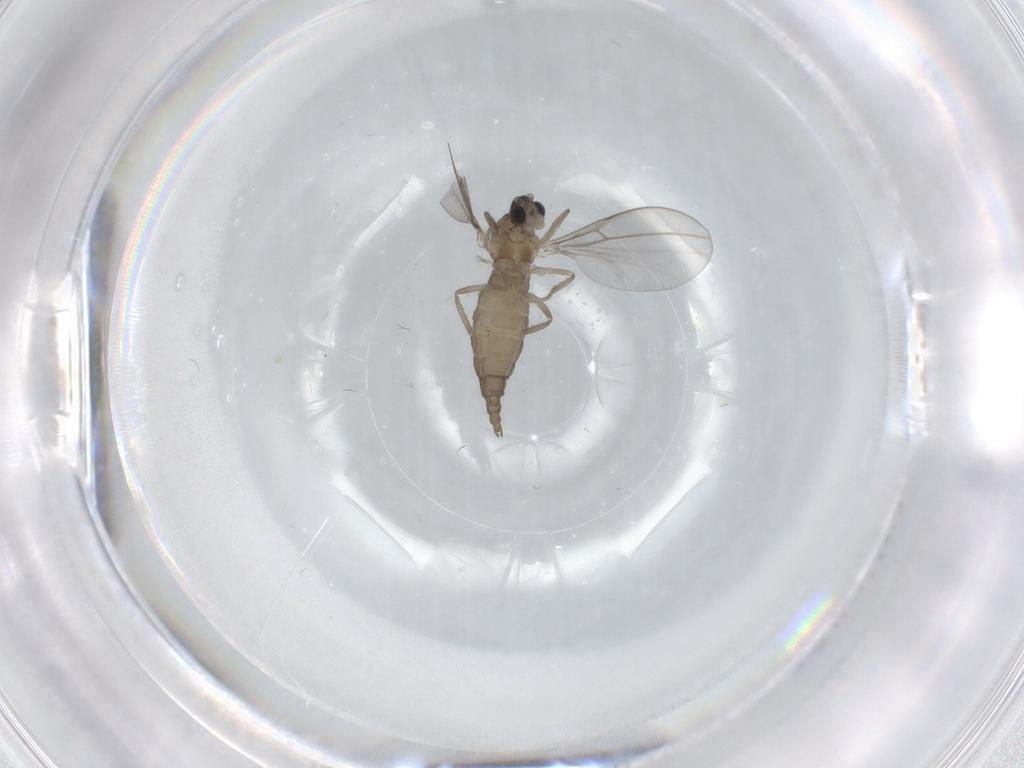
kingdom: Animalia
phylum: Arthropoda
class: Insecta
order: Diptera
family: Cecidomyiidae
